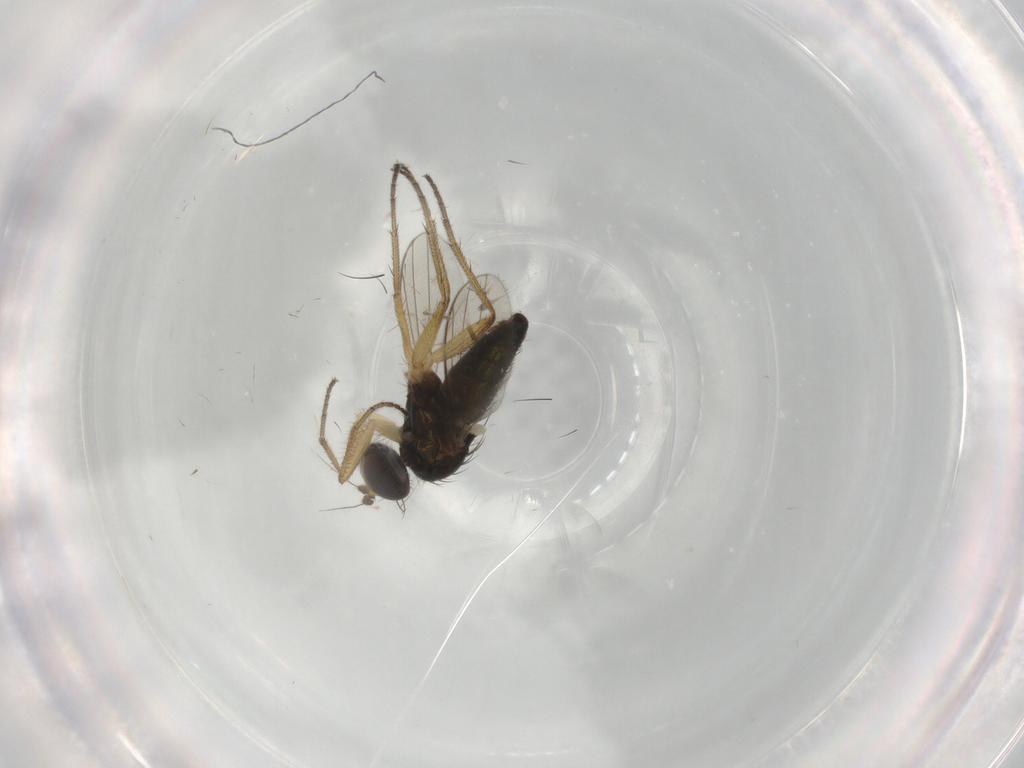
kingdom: Animalia
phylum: Arthropoda
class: Insecta
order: Diptera
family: Dolichopodidae
